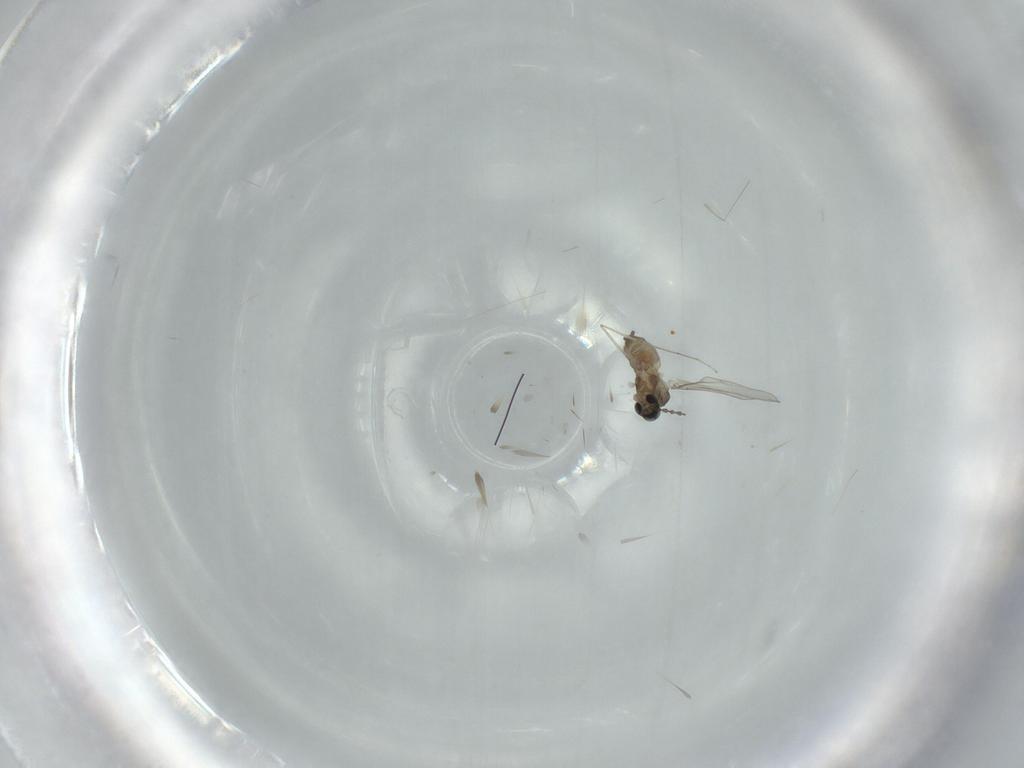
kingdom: Animalia
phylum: Arthropoda
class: Insecta
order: Diptera
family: Cecidomyiidae
